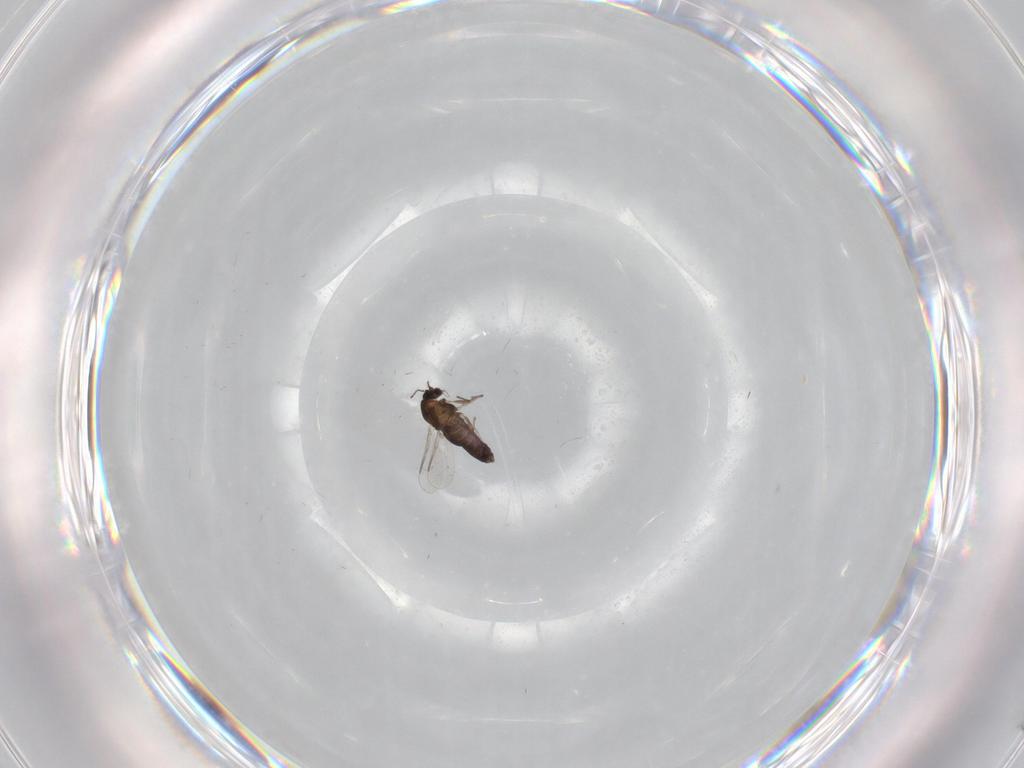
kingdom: Animalia
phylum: Arthropoda
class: Insecta
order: Diptera
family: Chironomidae
